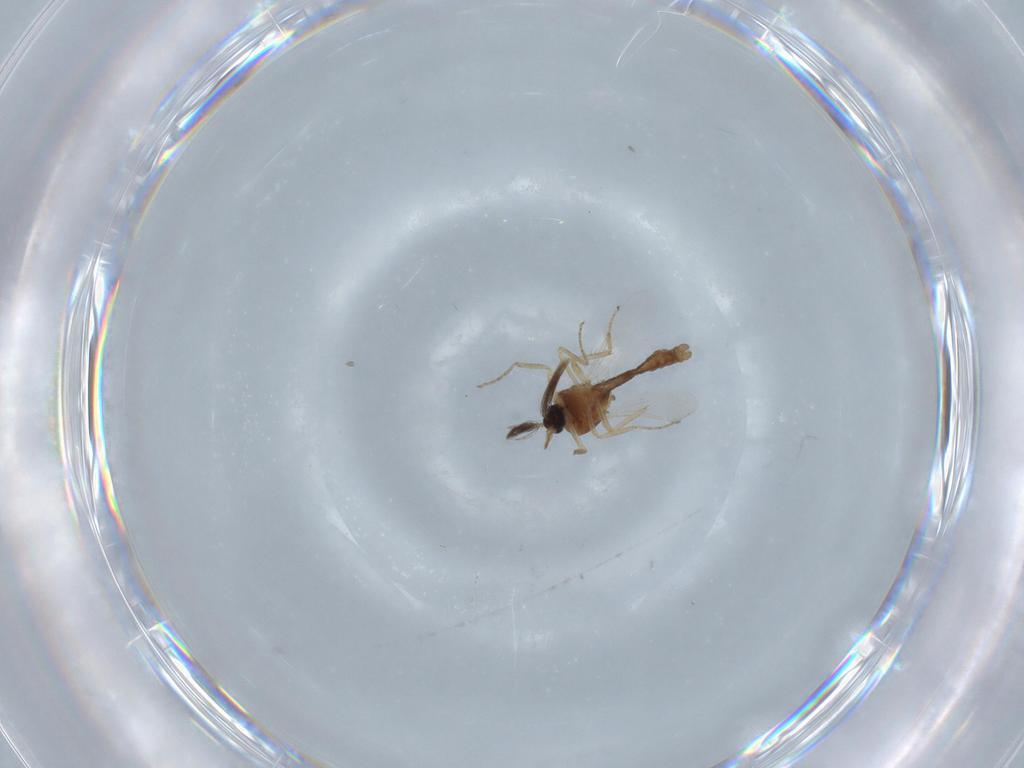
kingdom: Animalia
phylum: Arthropoda
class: Insecta
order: Diptera
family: Ceratopogonidae
